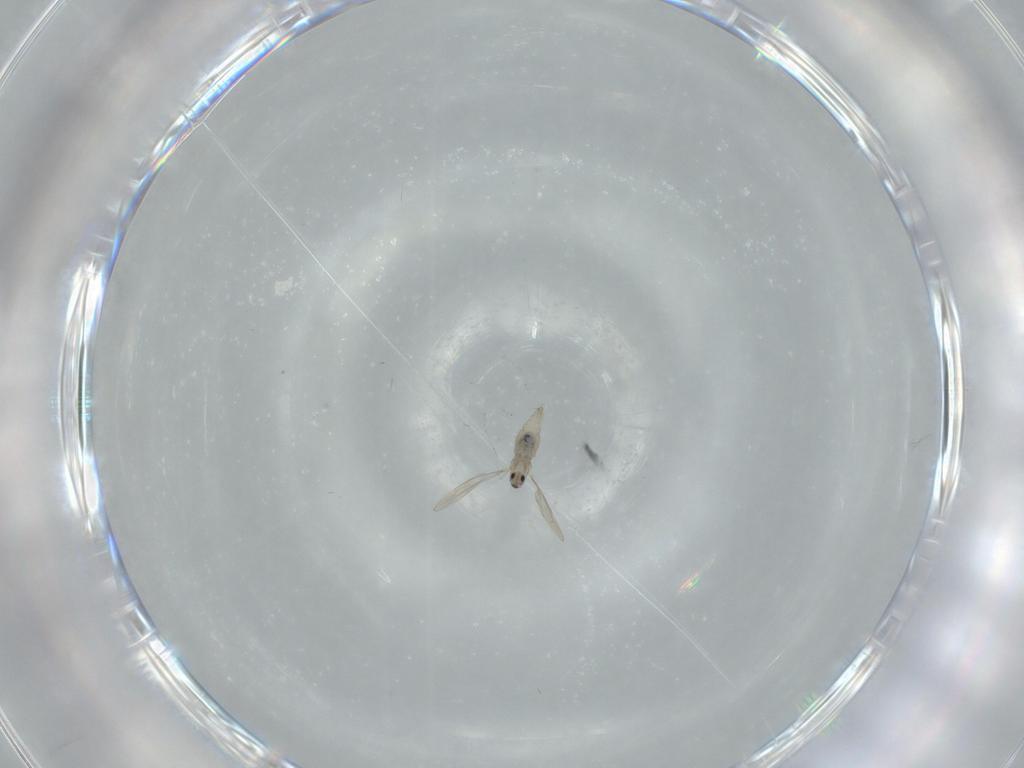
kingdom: Animalia
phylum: Arthropoda
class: Insecta
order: Diptera
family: Cecidomyiidae
